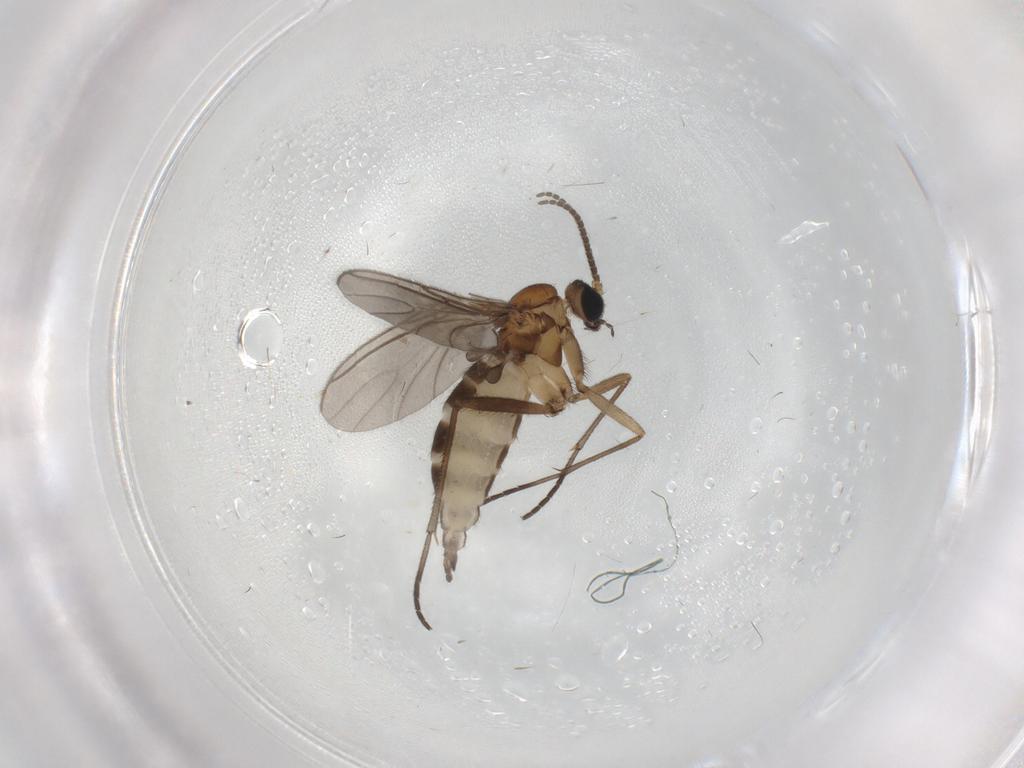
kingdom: Animalia
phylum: Arthropoda
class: Insecta
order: Diptera
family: Sciaridae
